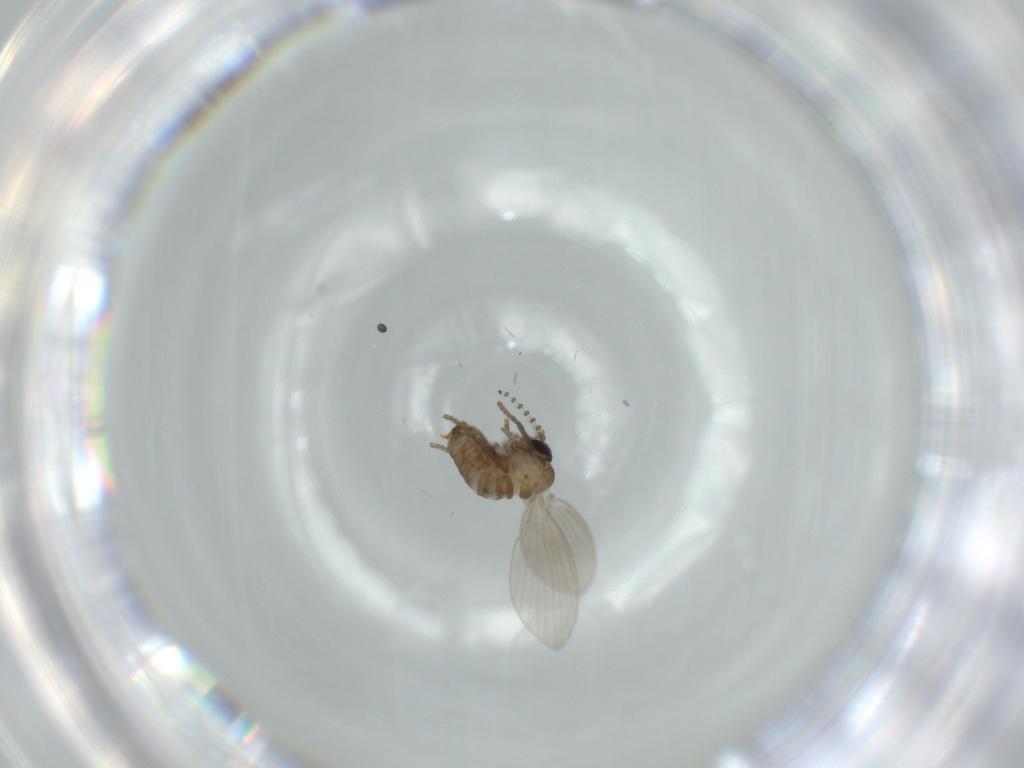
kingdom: Animalia
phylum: Arthropoda
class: Insecta
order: Diptera
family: Psychodidae
